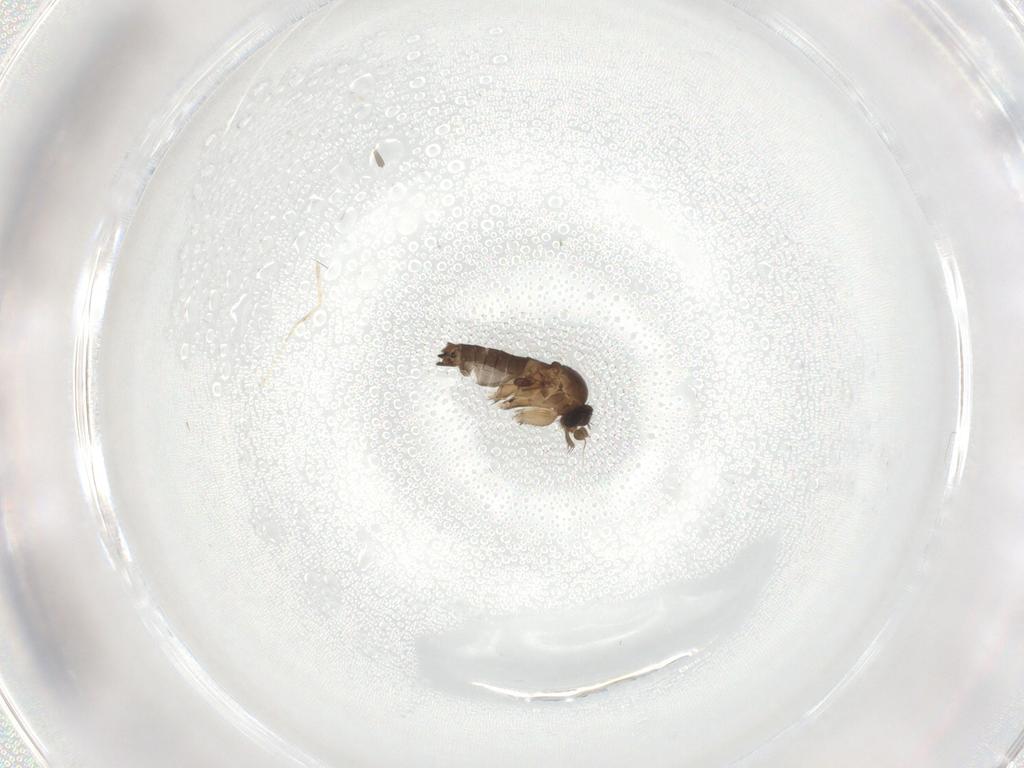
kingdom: Animalia
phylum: Arthropoda
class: Insecta
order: Diptera
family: Cecidomyiidae
